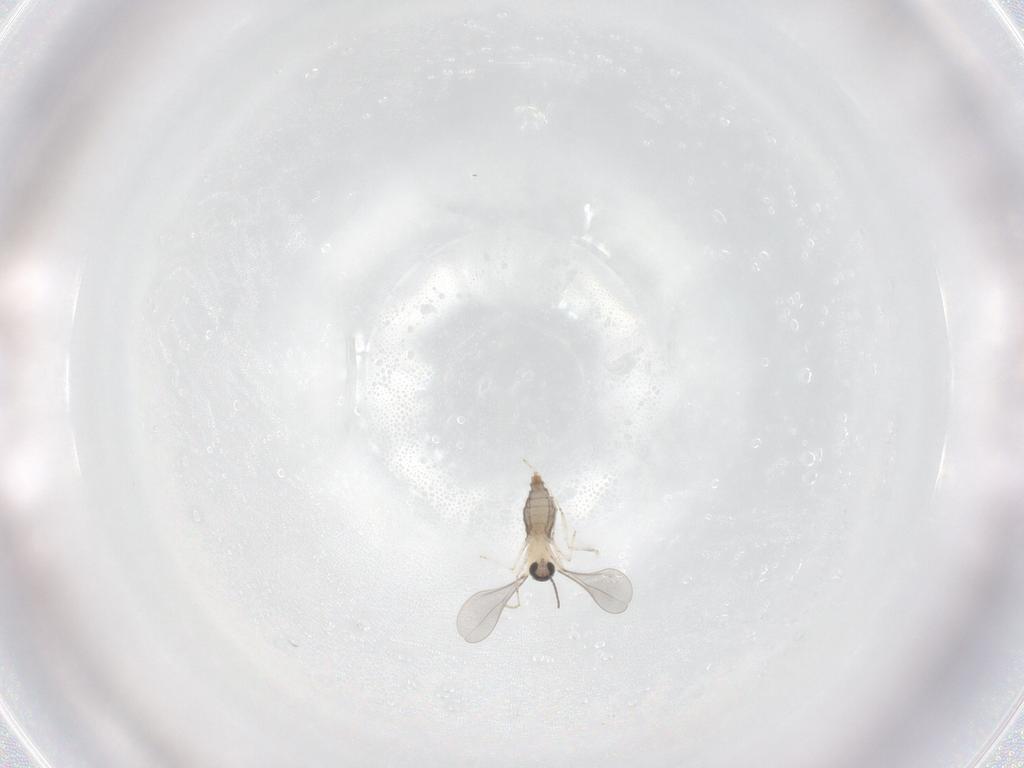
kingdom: Animalia
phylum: Arthropoda
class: Insecta
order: Diptera
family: Cecidomyiidae
